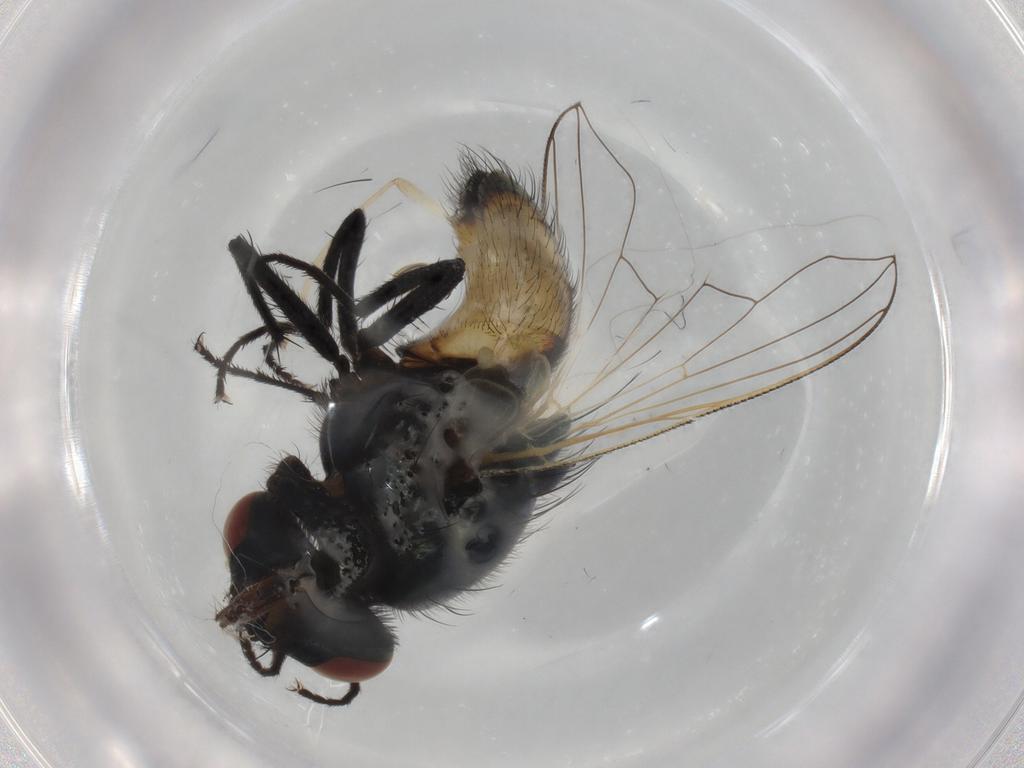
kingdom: Animalia
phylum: Arthropoda
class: Insecta
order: Diptera
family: Muscidae
